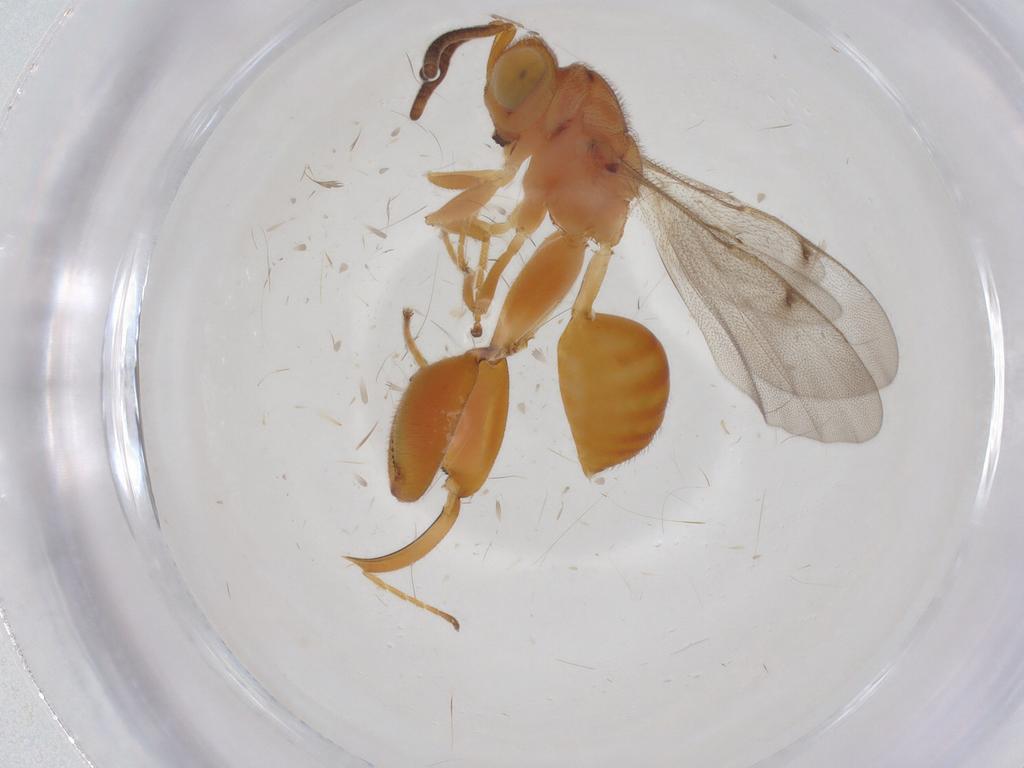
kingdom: Animalia
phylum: Arthropoda
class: Insecta
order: Hymenoptera
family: Chalcididae
